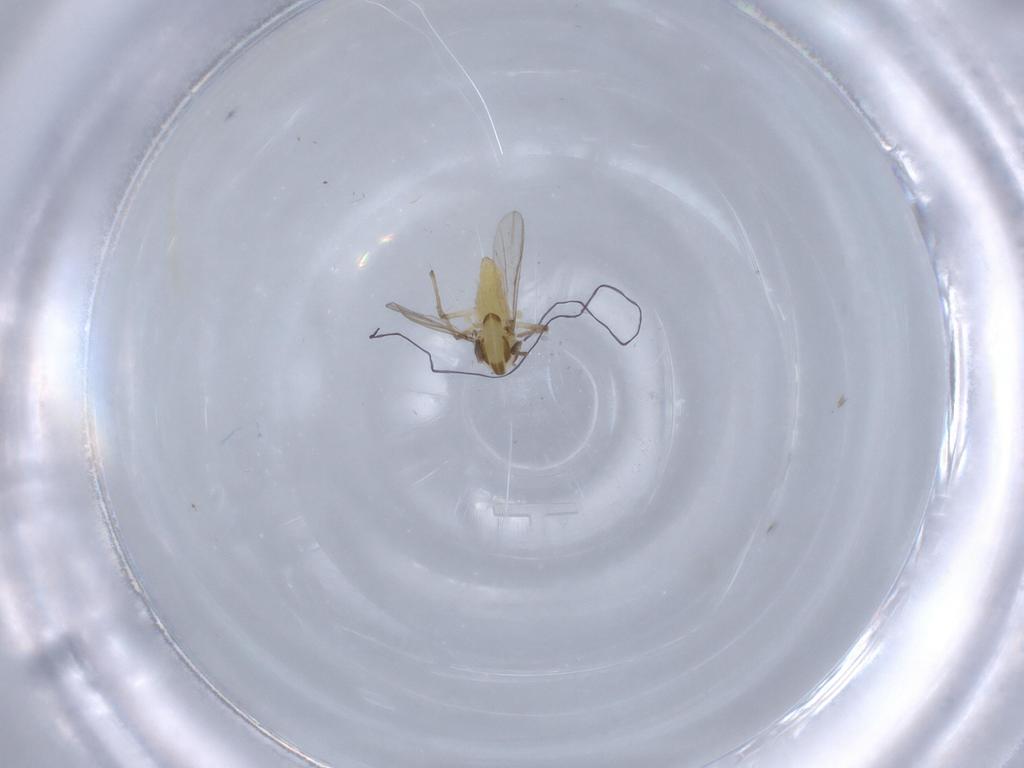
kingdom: Animalia
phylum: Arthropoda
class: Insecta
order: Diptera
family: Chironomidae
